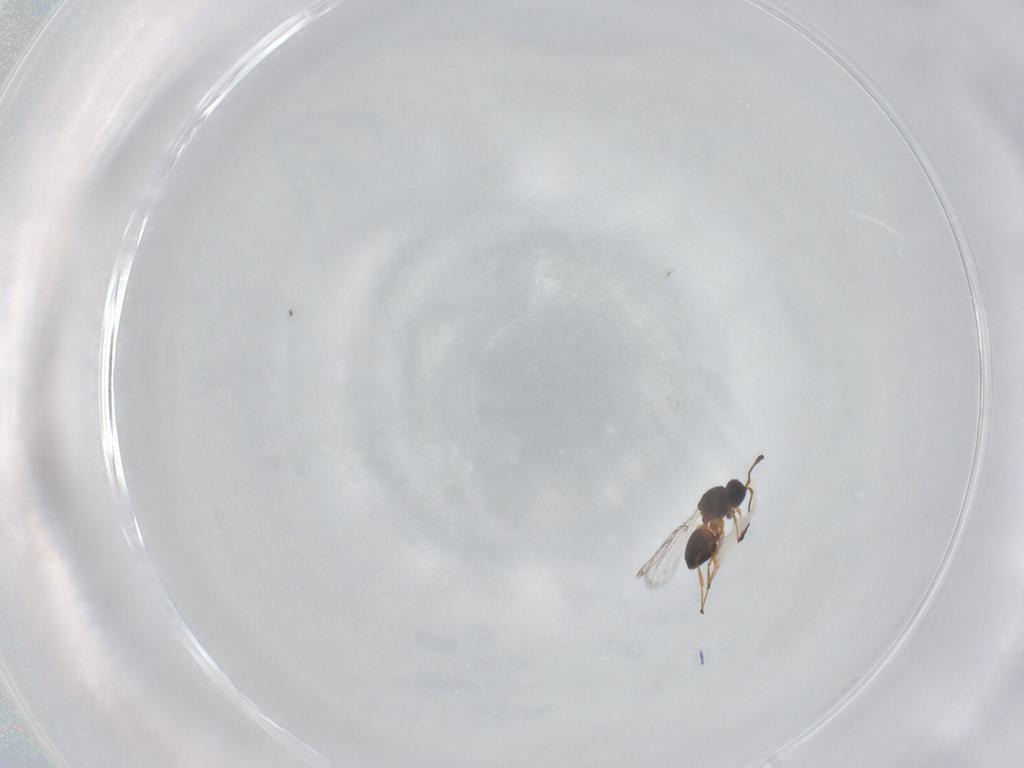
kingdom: Animalia
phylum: Arthropoda
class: Insecta
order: Hymenoptera
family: Figitidae
